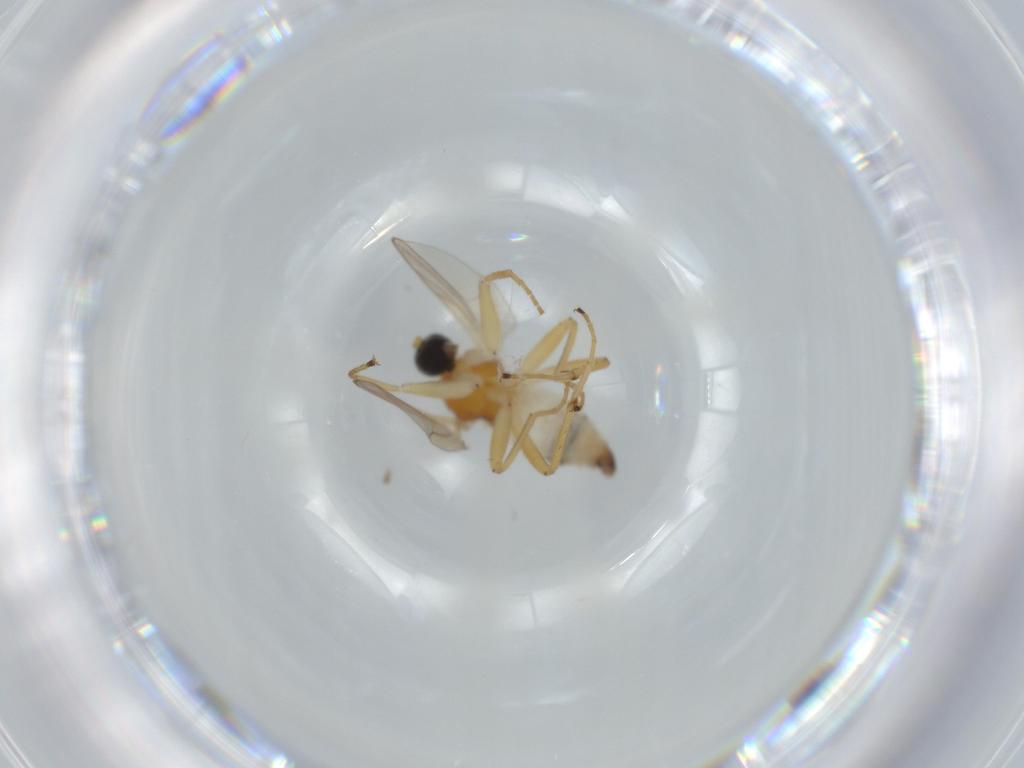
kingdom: Animalia
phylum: Arthropoda
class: Insecta
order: Diptera
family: Hybotidae
